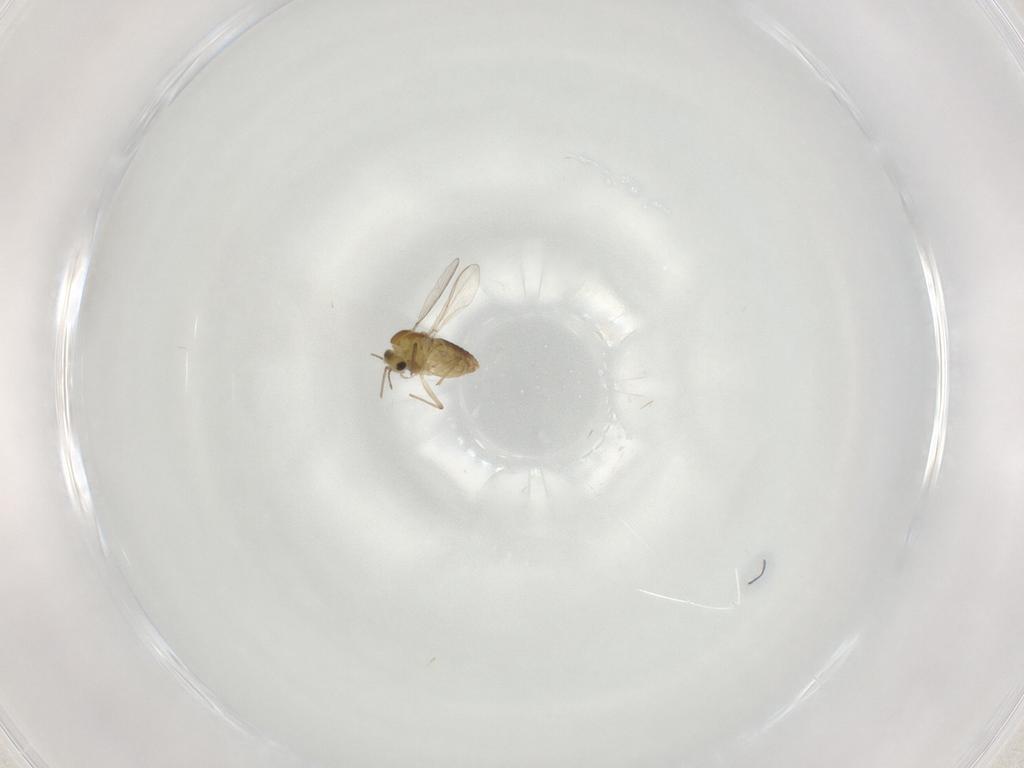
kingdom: Animalia
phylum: Arthropoda
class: Insecta
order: Diptera
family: Chironomidae
